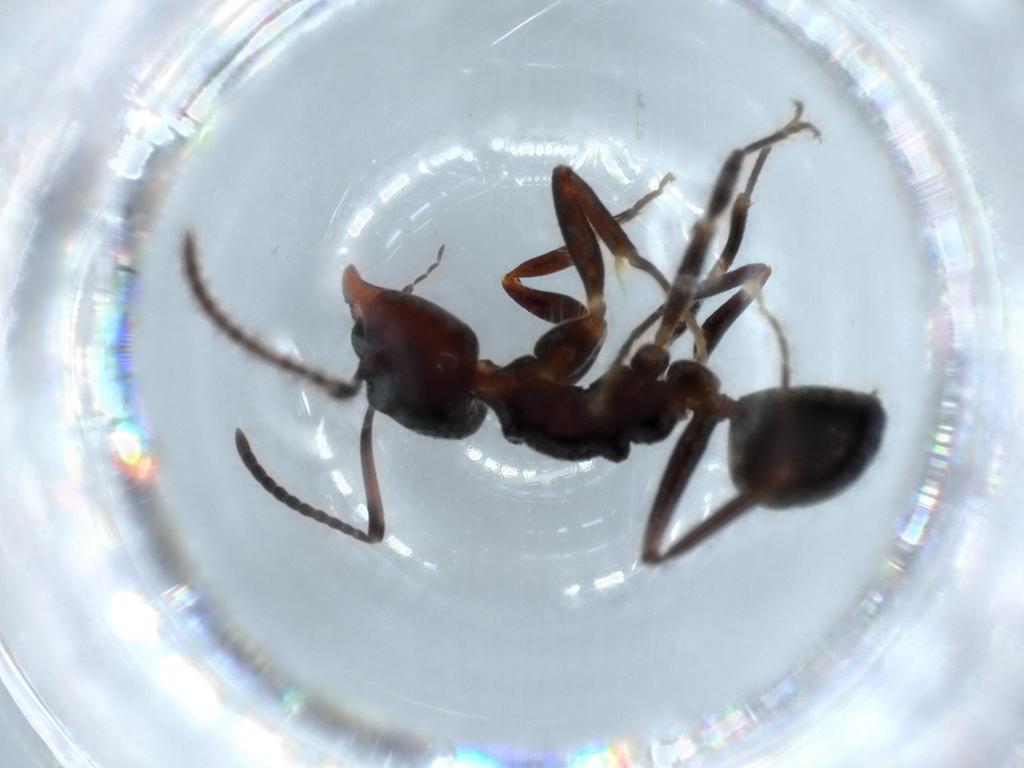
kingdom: Animalia
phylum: Arthropoda
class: Insecta
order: Hymenoptera
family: Formicidae
